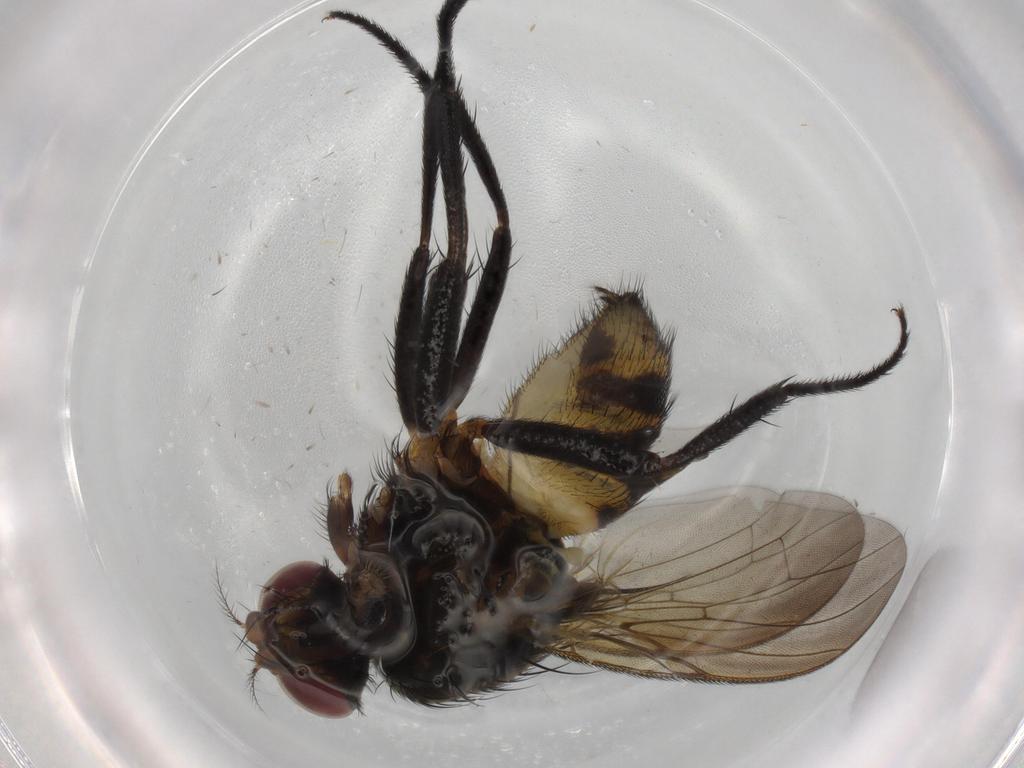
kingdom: Animalia
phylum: Arthropoda
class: Insecta
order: Diptera
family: Anthomyiidae
